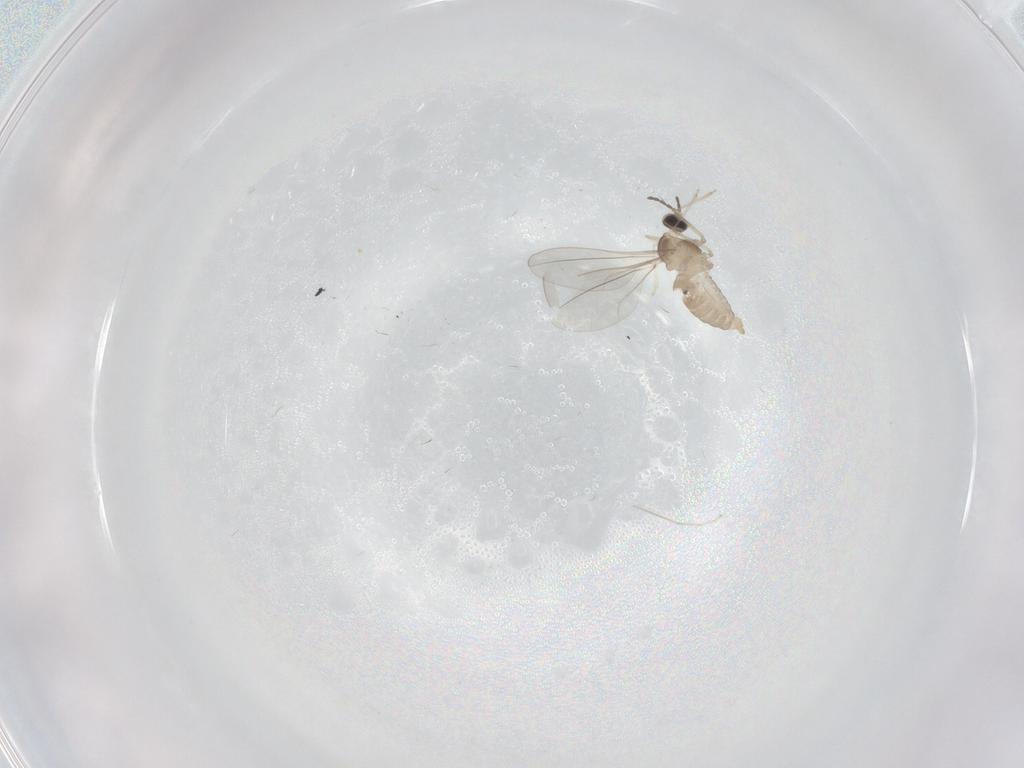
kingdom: Animalia
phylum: Arthropoda
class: Insecta
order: Diptera
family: Cecidomyiidae
